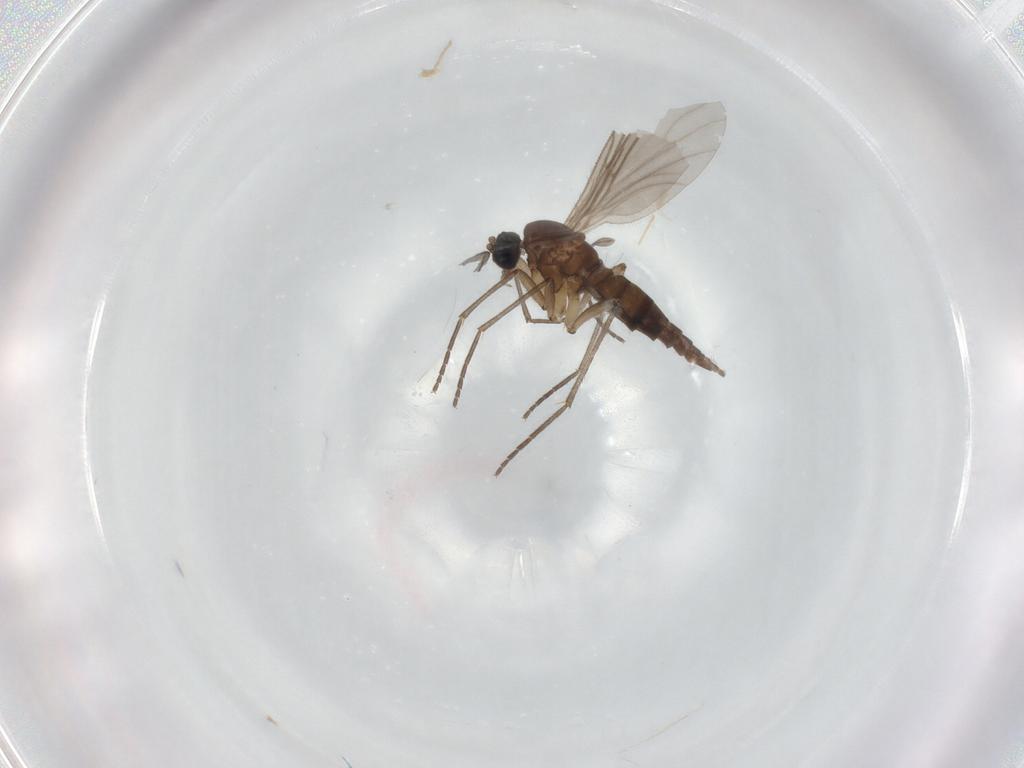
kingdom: Animalia
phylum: Arthropoda
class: Insecta
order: Diptera
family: Sciaridae
